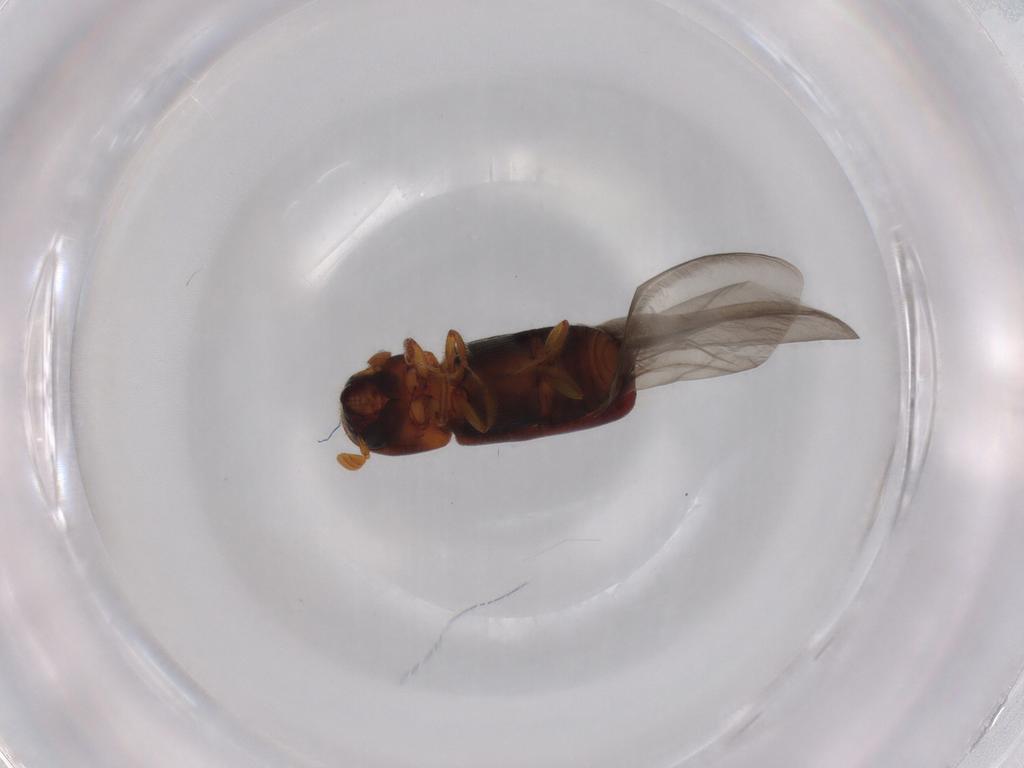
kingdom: Animalia
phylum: Arthropoda
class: Insecta
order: Coleoptera
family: Curculionidae
